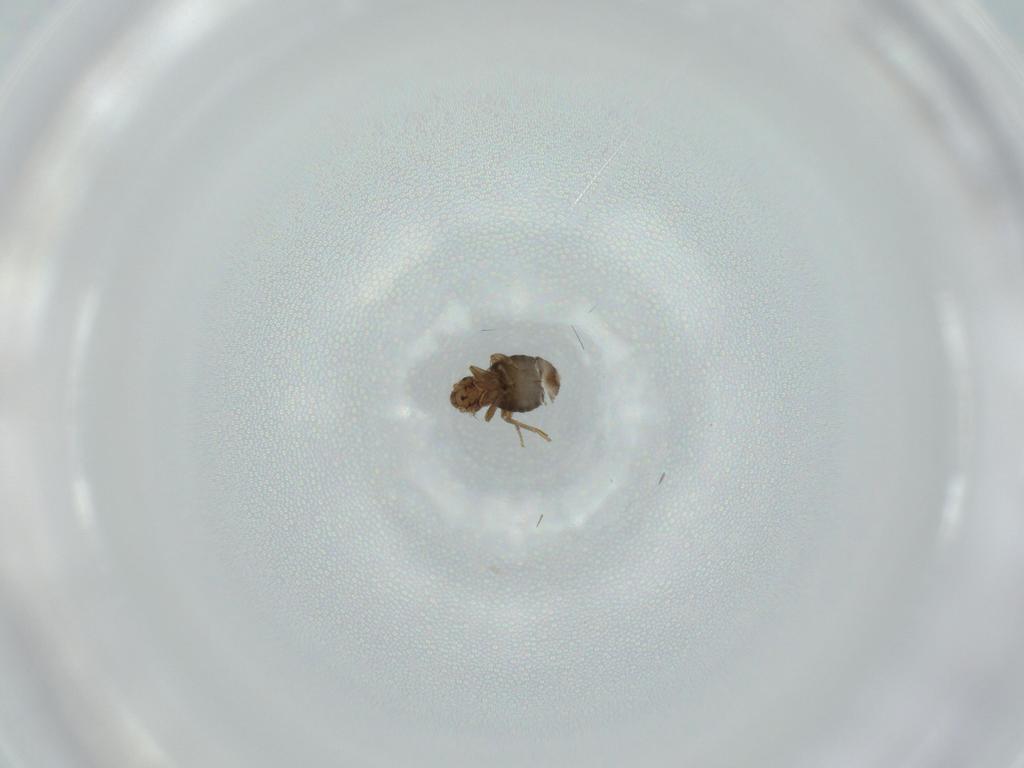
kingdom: Animalia
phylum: Arthropoda
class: Insecta
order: Diptera
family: Phoridae
